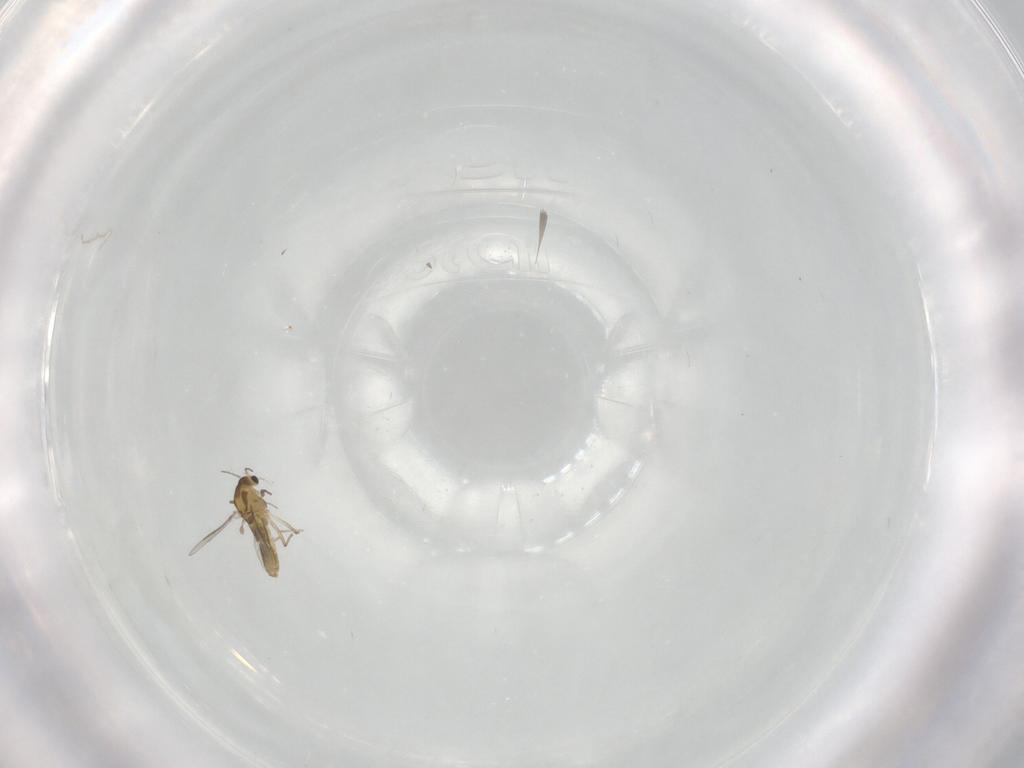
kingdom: Animalia
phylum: Arthropoda
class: Insecta
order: Diptera
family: Chironomidae
